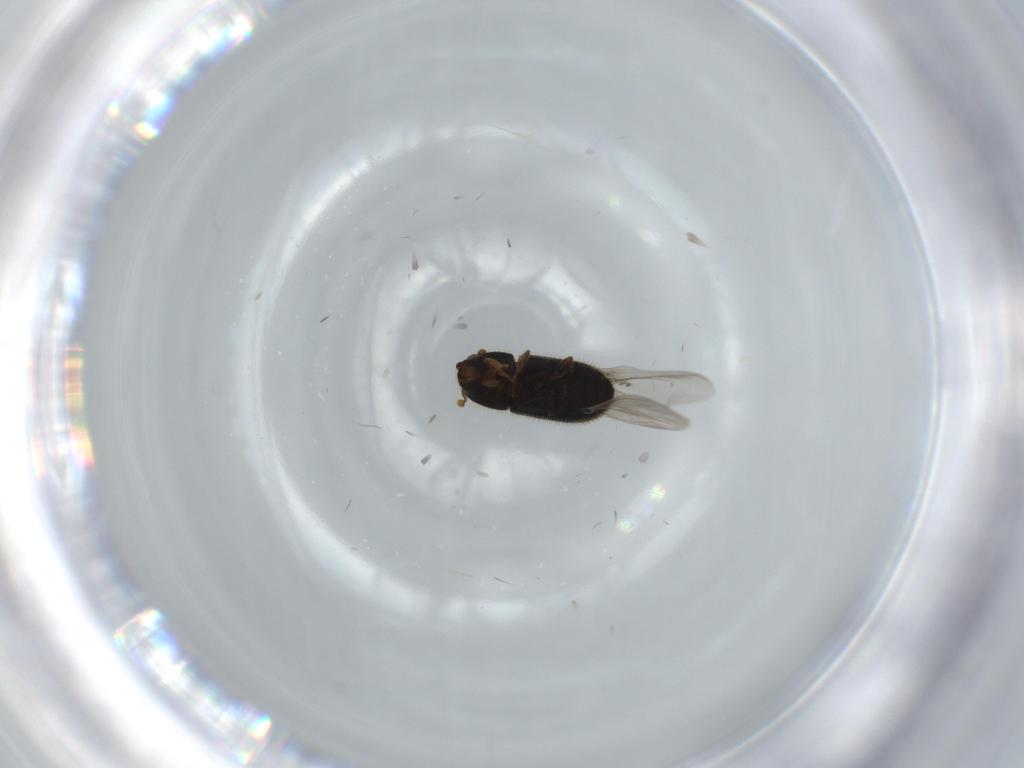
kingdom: Animalia
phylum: Arthropoda
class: Insecta
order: Coleoptera
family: Curculionidae
